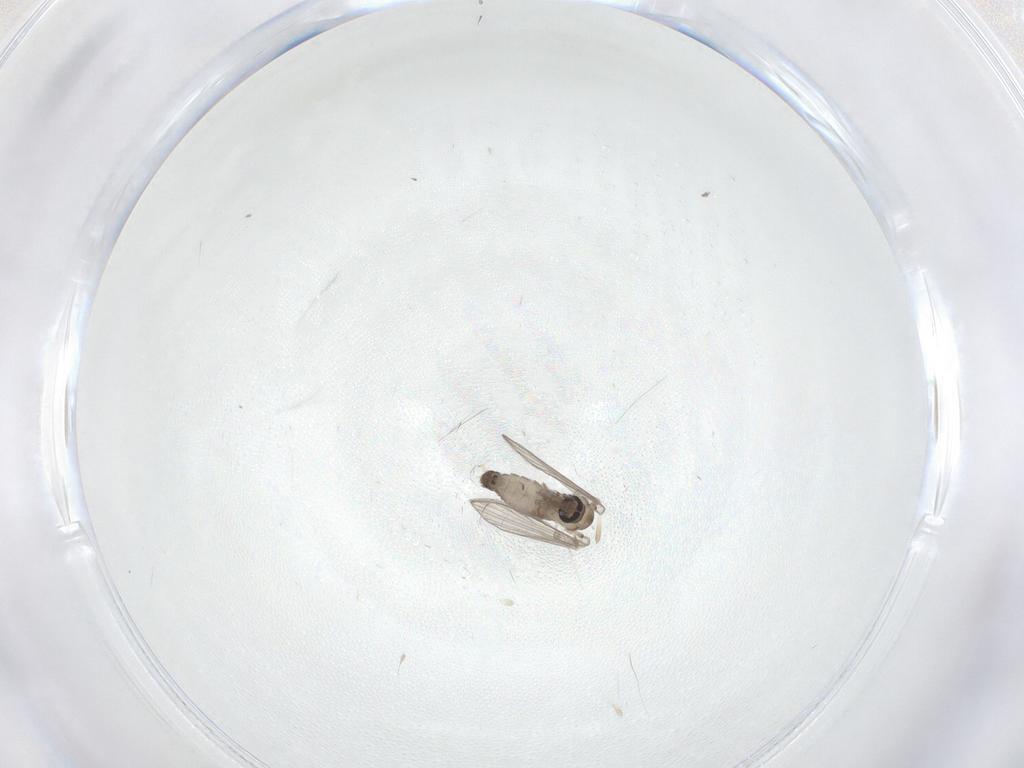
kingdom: Animalia
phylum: Arthropoda
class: Insecta
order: Diptera
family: Psychodidae
